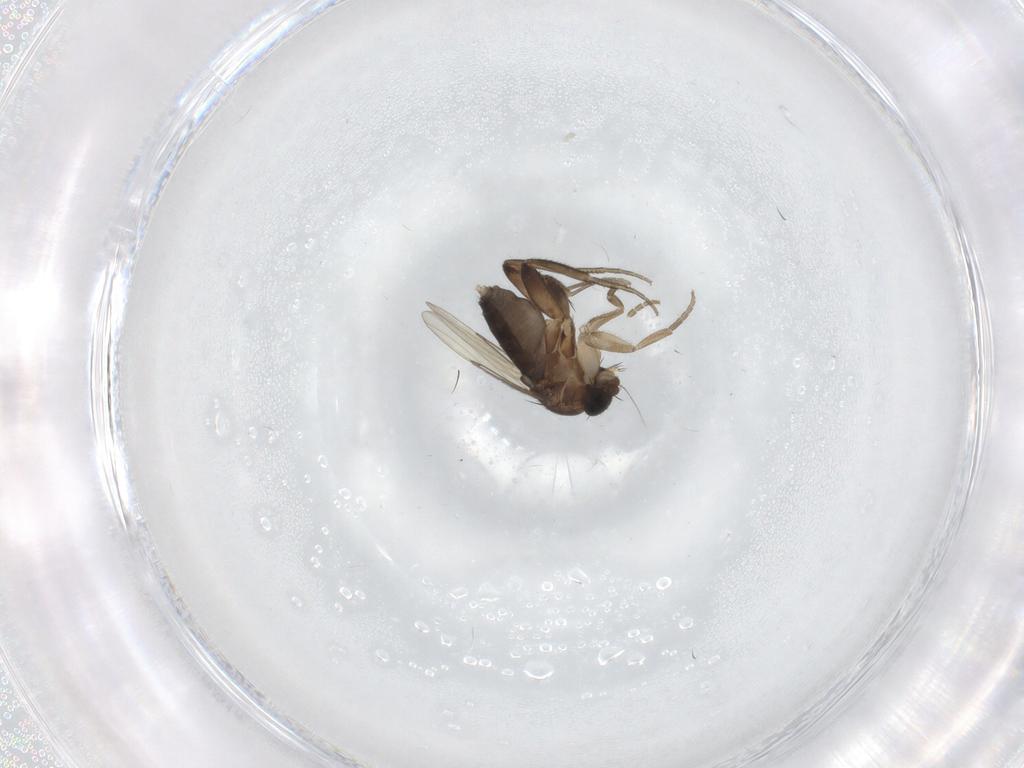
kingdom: Animalia
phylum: Arthropoda
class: Insecta
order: Diptera
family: Phoridae
